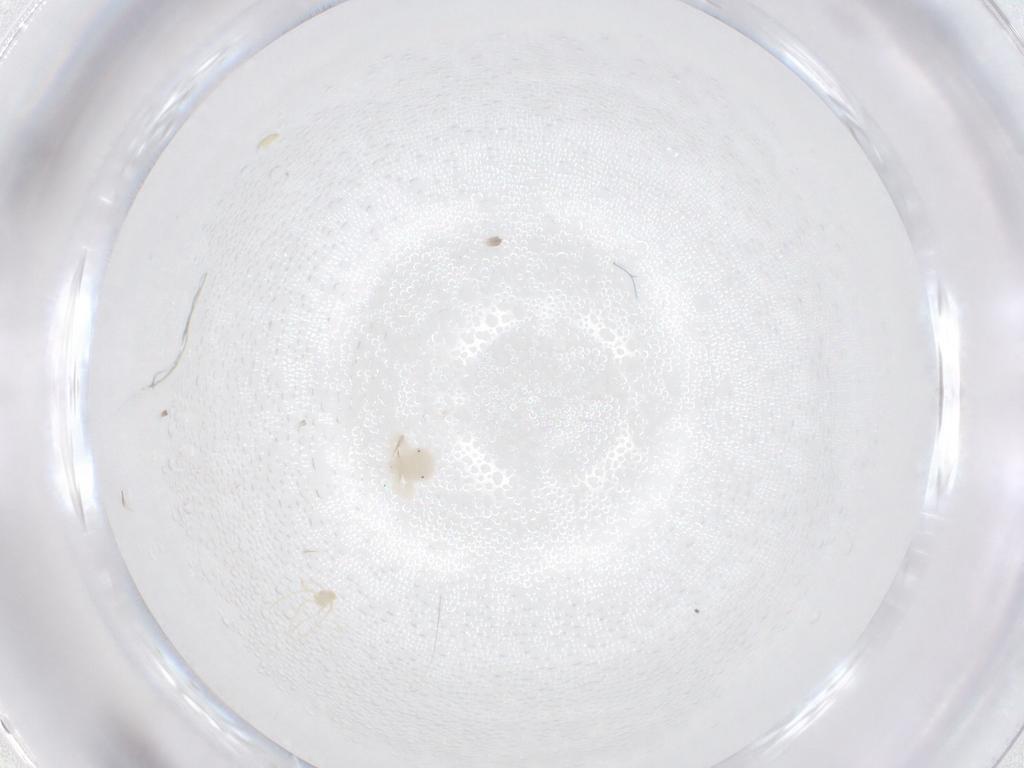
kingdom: Animalia
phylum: Arthropoda
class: Arachnida
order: Trombidiformes
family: Anystidae
